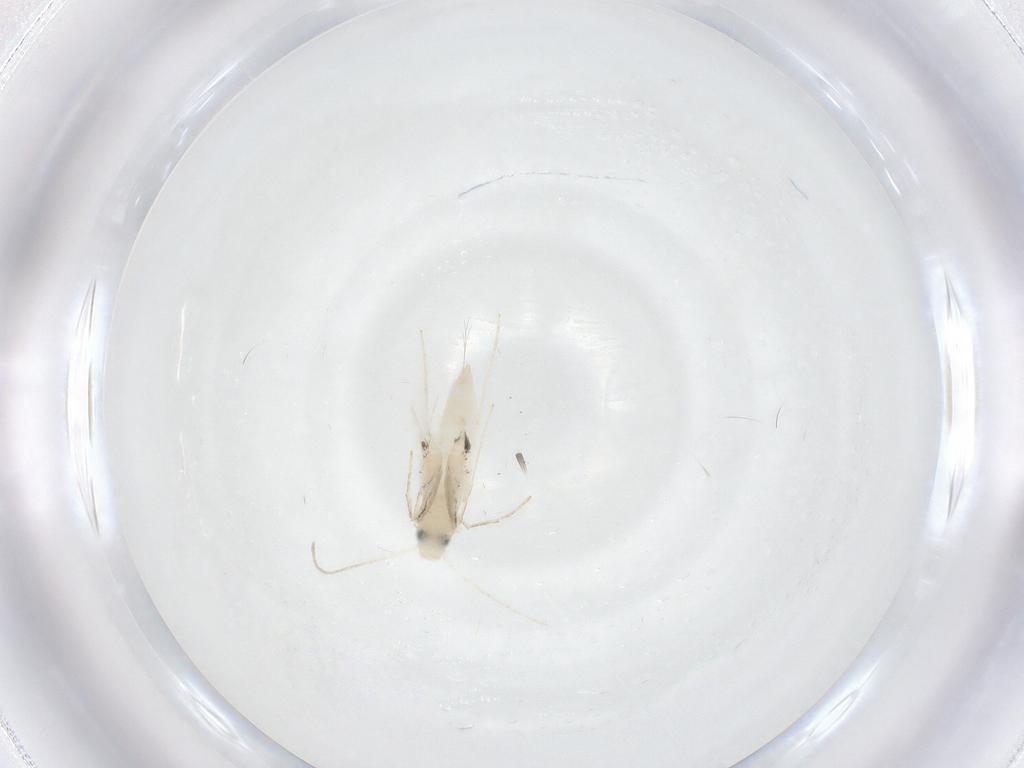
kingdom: Animalia
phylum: Arthropoda
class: Insecta
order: Lepidoptera
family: Gracillariidae
